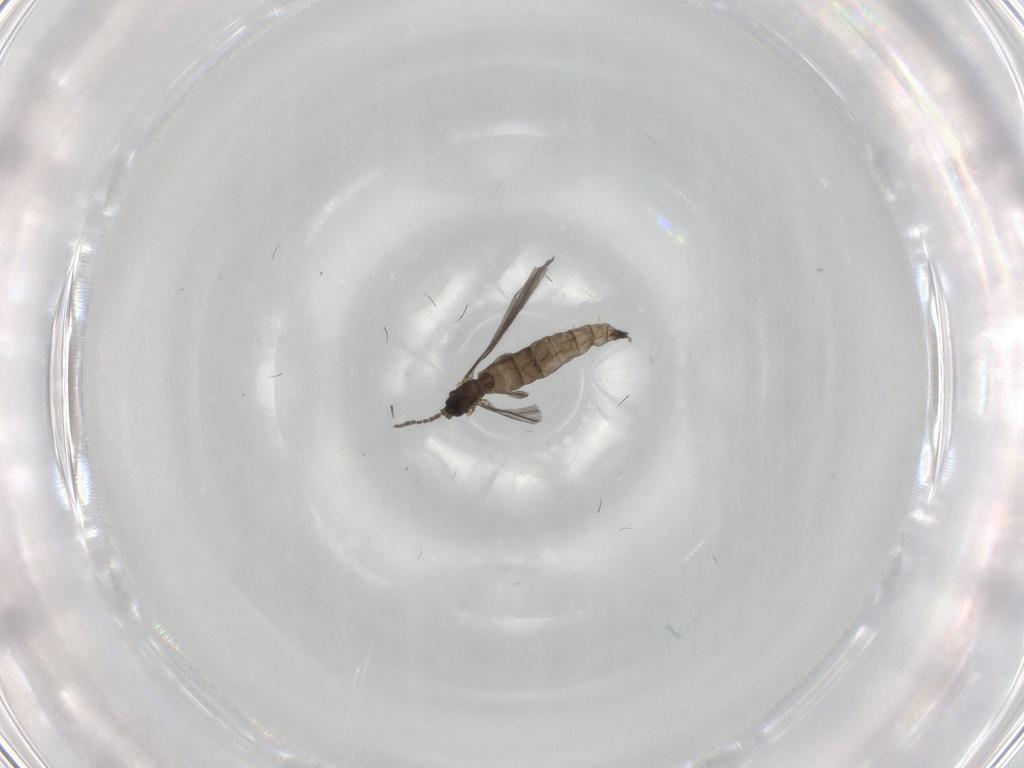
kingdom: Animalia
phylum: Arthropoda
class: Insecta
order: Diptera
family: Sciaridae
